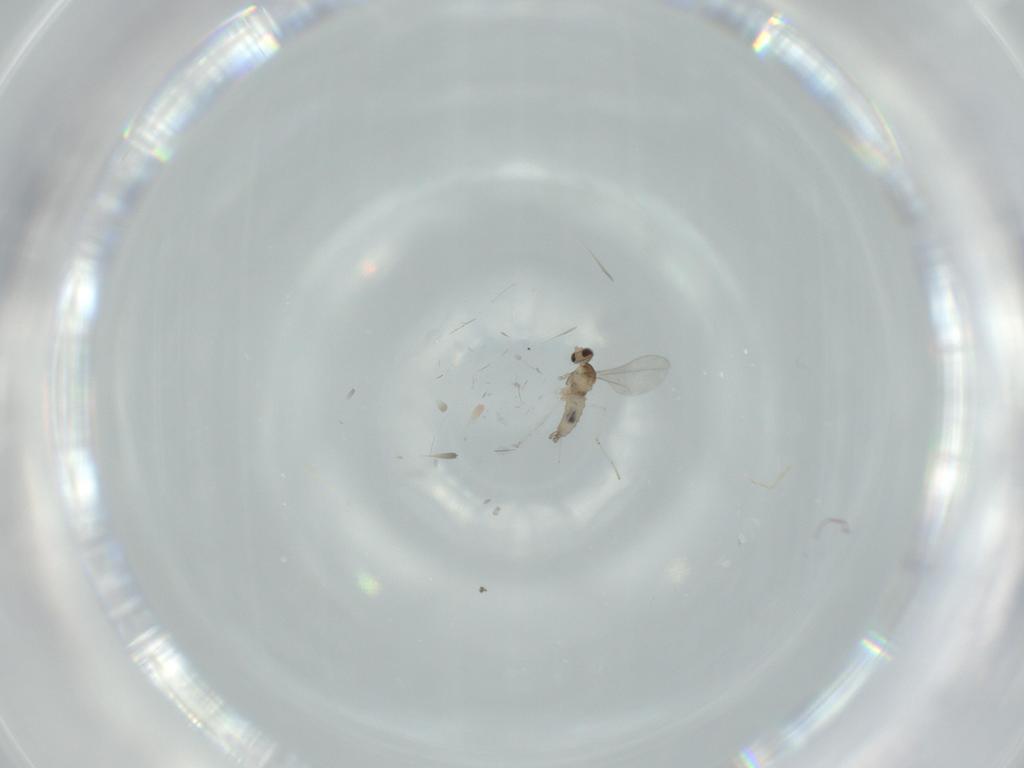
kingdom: Animalia
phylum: Arthropoda
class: Insecta
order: Diptera
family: Cecidomyiidae
